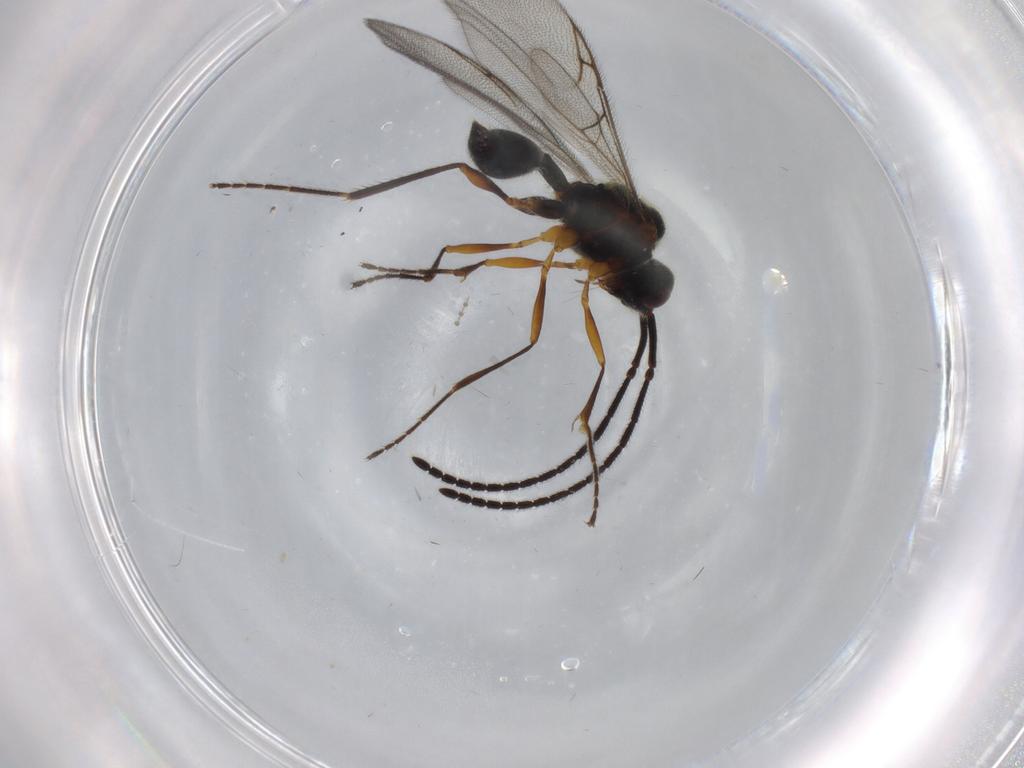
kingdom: Animalia
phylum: Arthropoda
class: Insecta
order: Hymenoptera
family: Diapriidae
